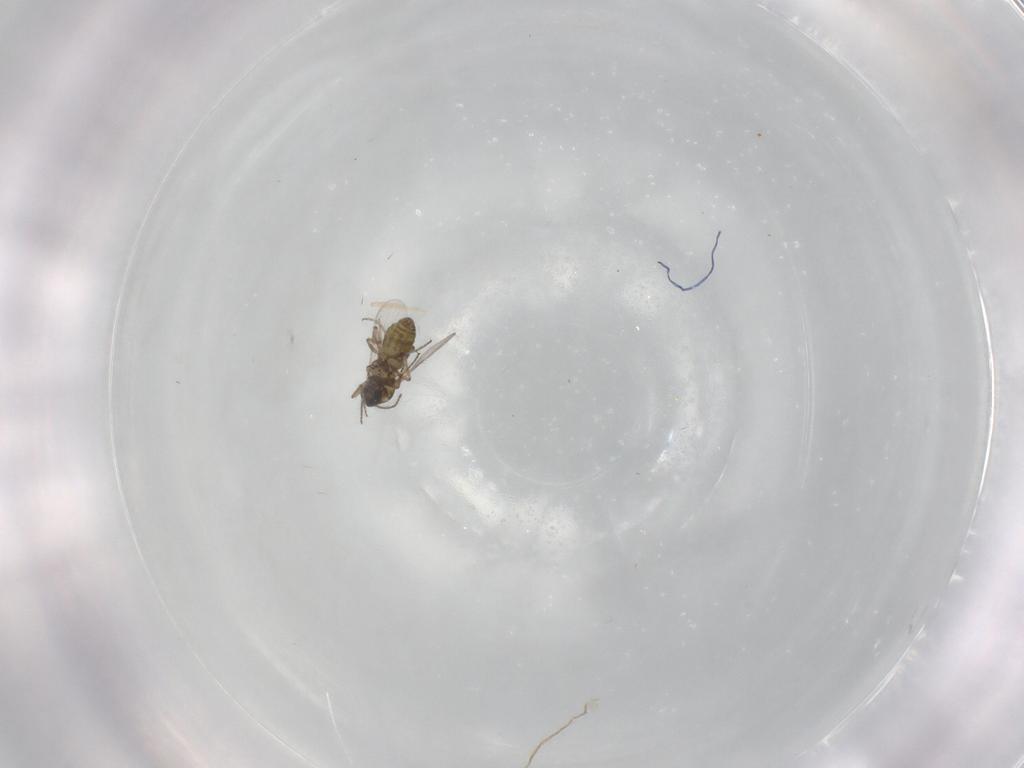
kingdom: Animalia
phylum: Arthropoda
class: Insecta
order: Diptera
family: Ceratopogonidae
